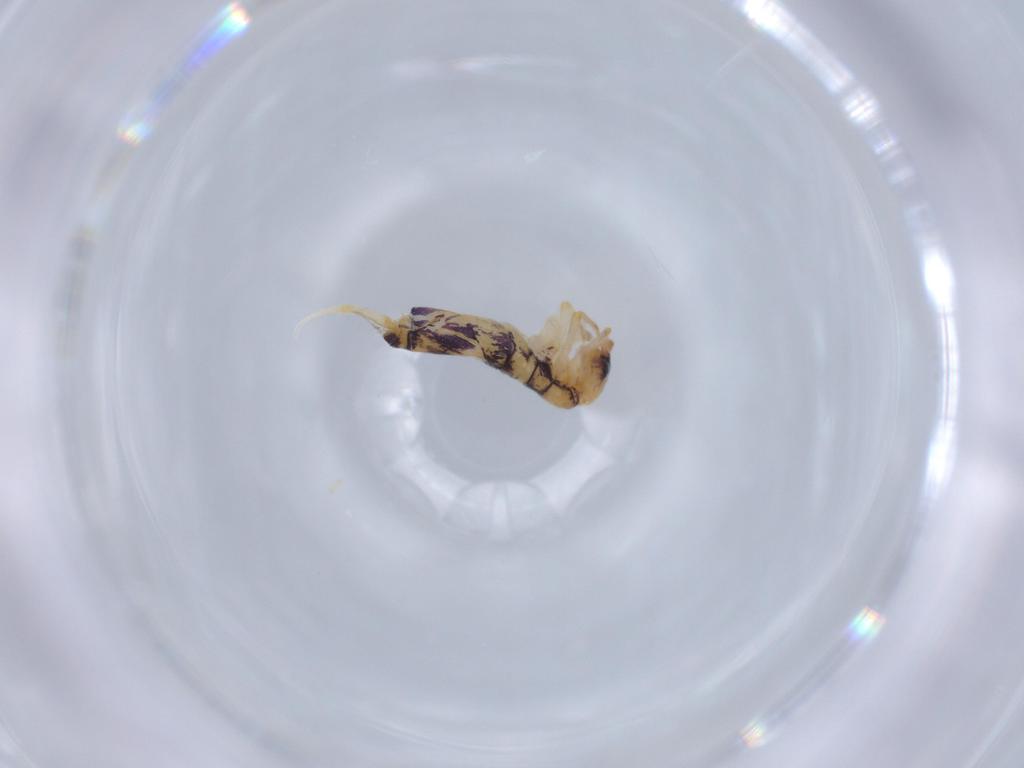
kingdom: Animalia
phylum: Arthropoda
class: Collembola
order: Entomobryomorpha
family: Entomobryidae
